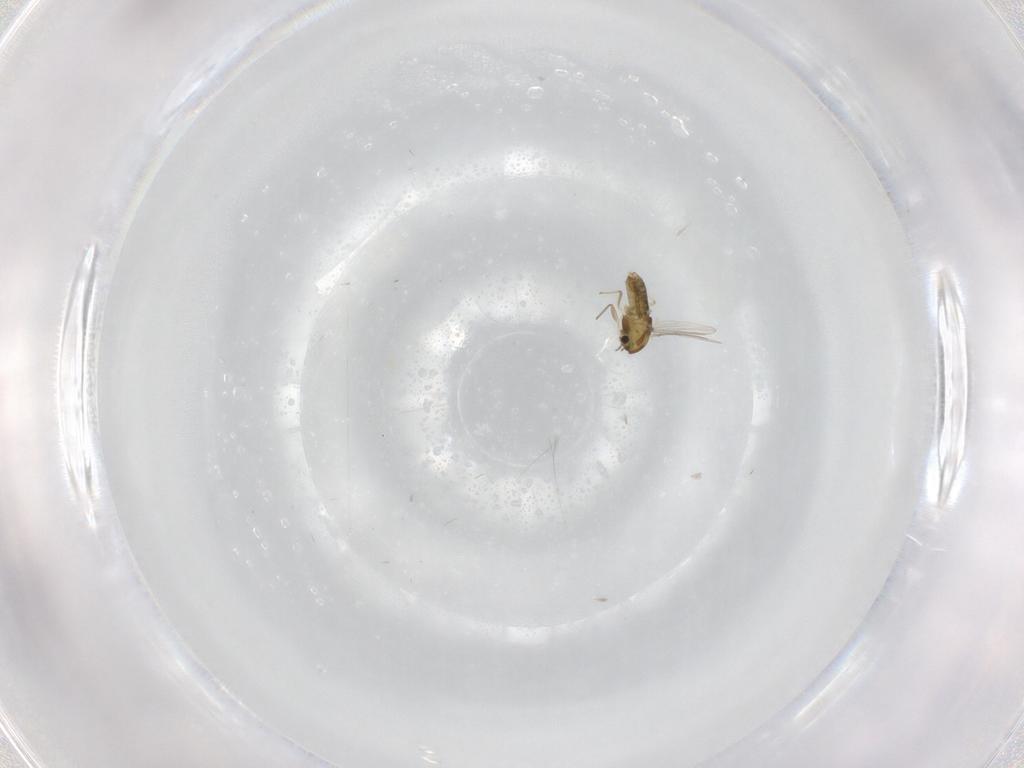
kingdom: Animalia
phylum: Arthropoda
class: Insecta
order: Diptera
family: Chironomidae
